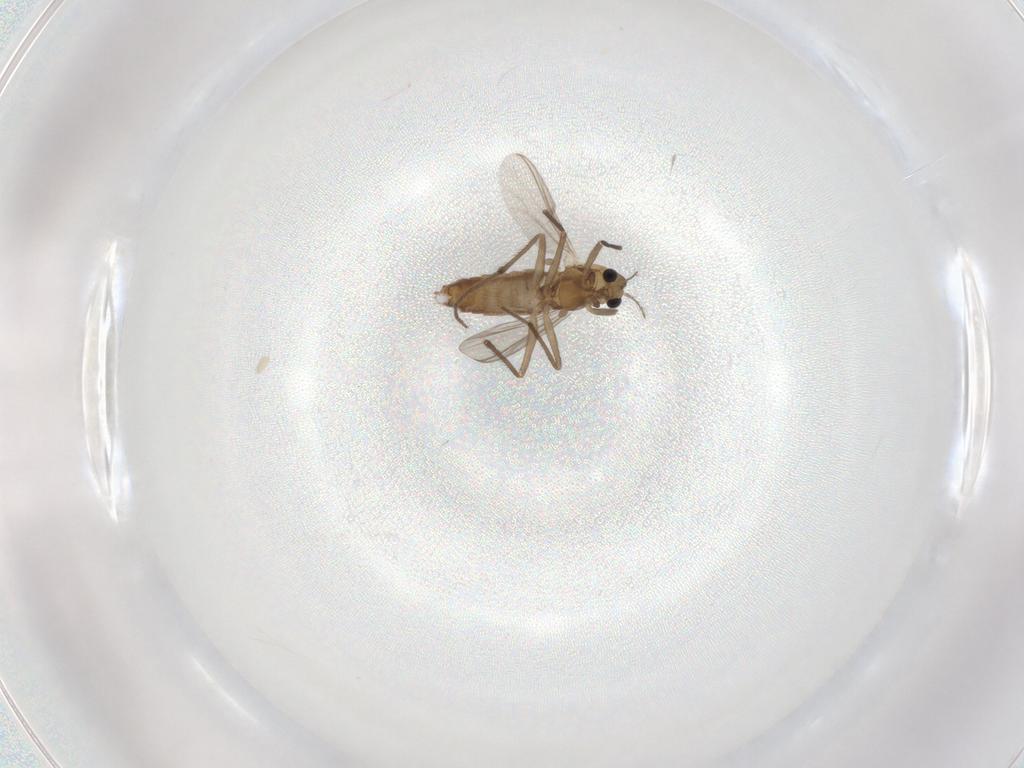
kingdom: Animalia
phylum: Arthropoda
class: Insecta
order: Diptera
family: Chironomidae
